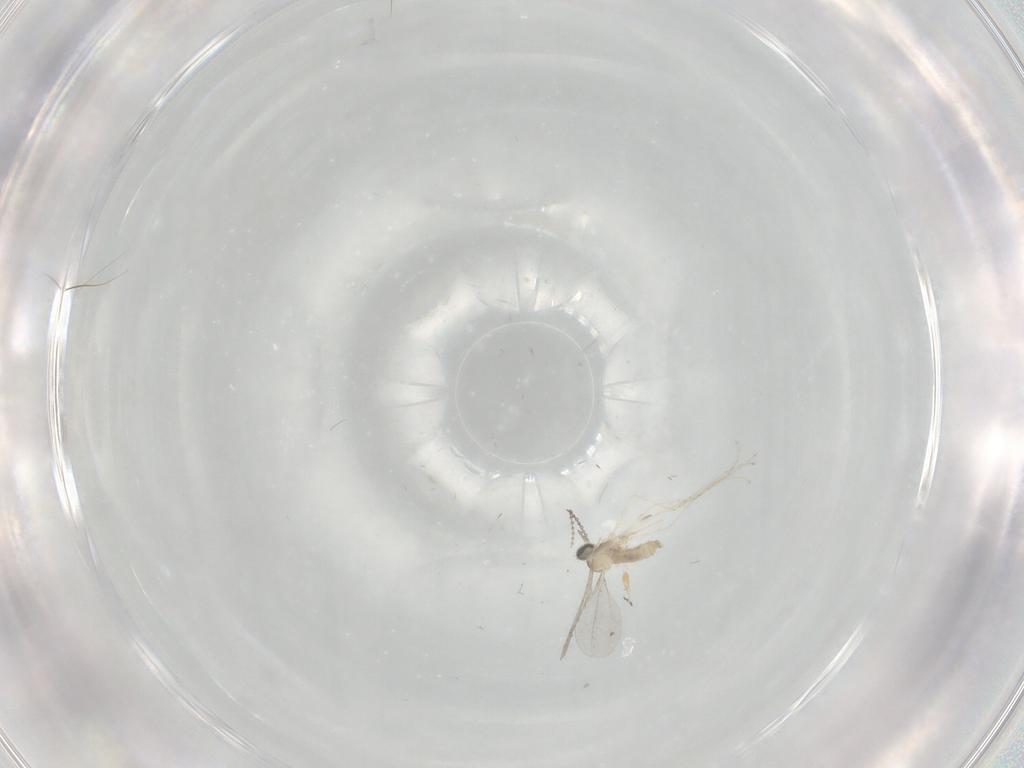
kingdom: Animalia
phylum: Arthropoda
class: Insecta
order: Diptera
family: Cecidomyiidae
